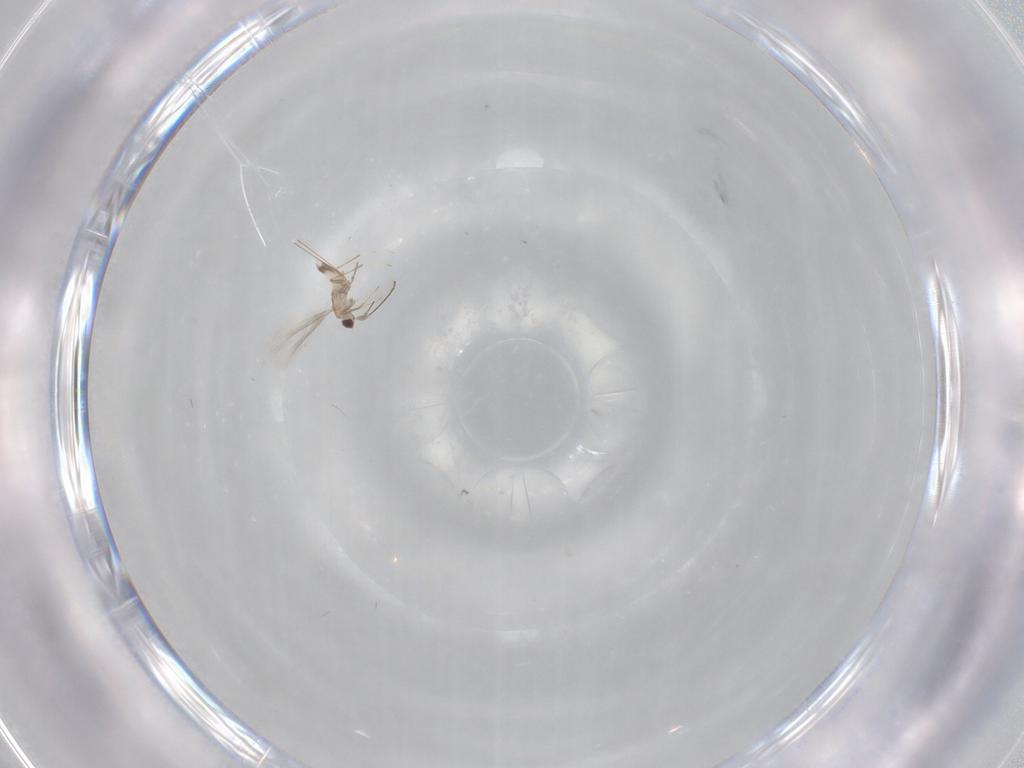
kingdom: Animalia
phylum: Arthropoda
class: Insecta
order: Hymenoptera
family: Mymaridae
